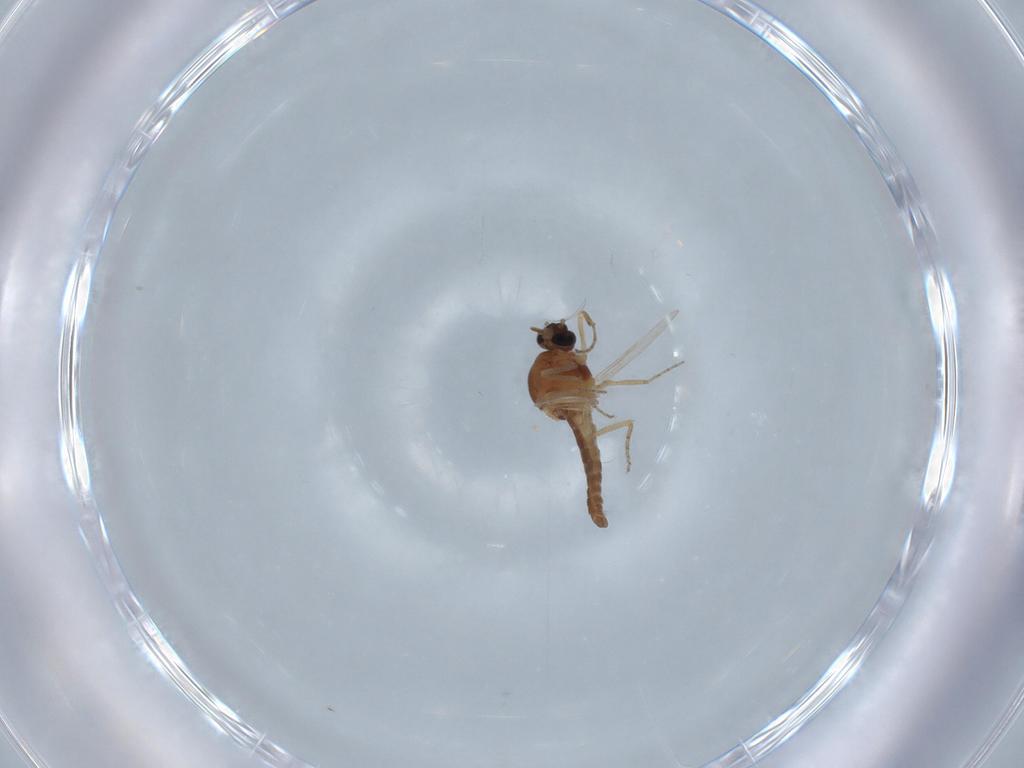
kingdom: Animalia
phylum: Arthropoda
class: Insecta
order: Diptera
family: Ceratopogonidae
